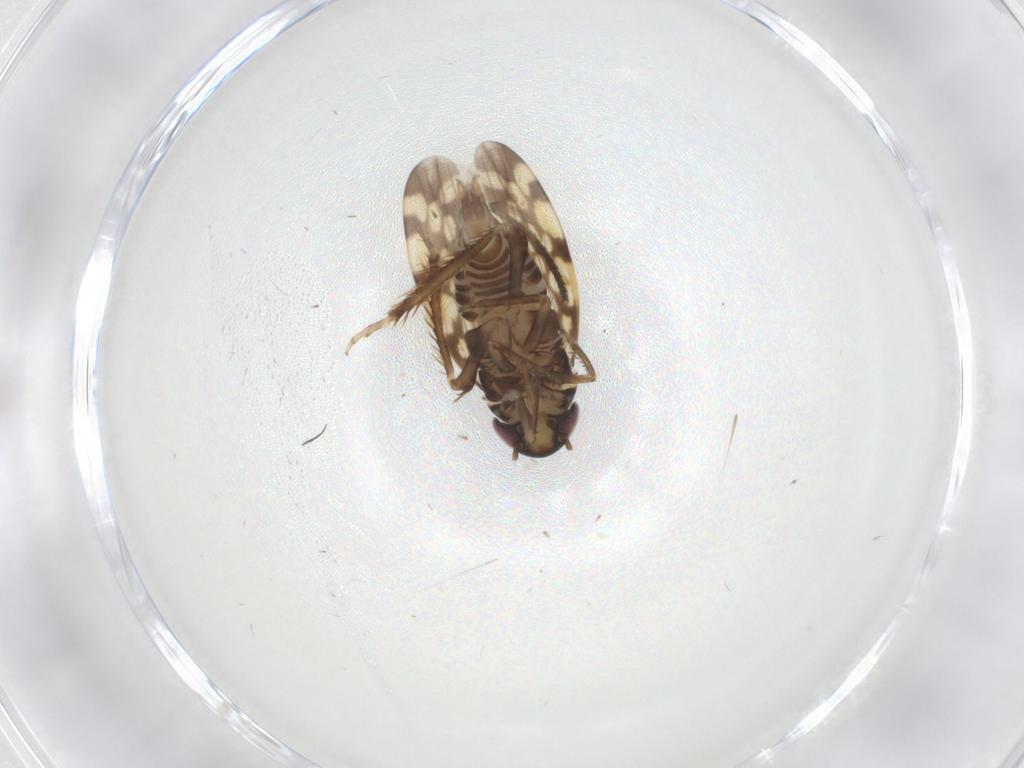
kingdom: Animalia
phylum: Arthropoda
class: Insecta
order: Hemiptera
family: Cicadellidae
